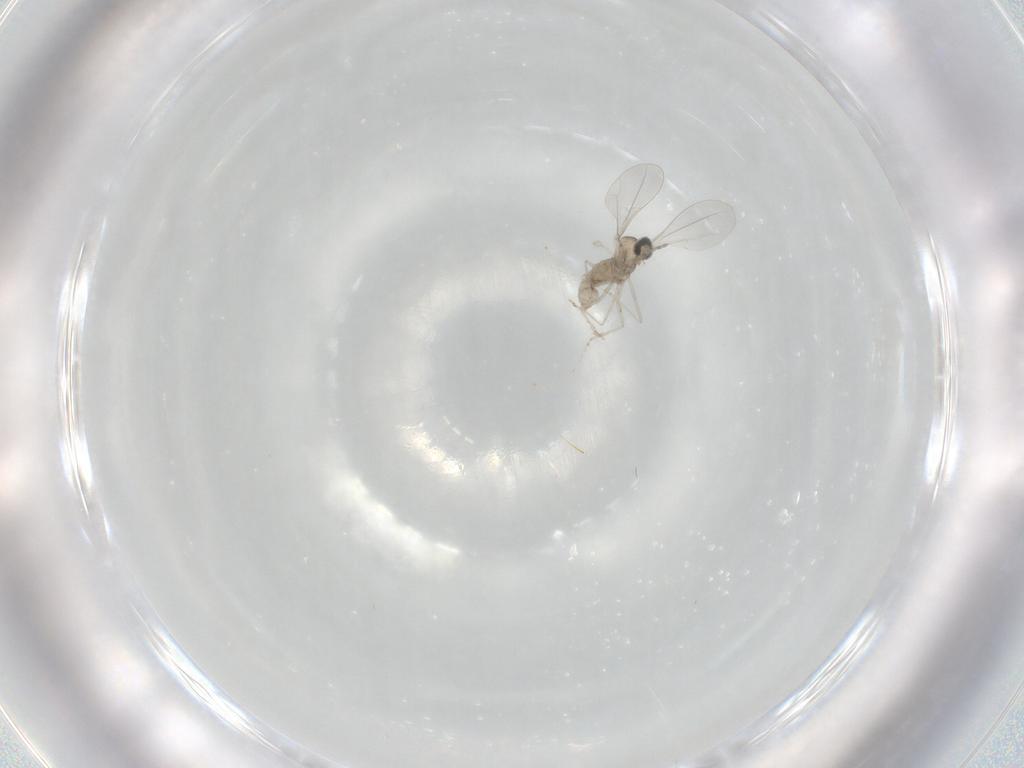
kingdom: Animalia
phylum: Arthropoda
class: Insecta
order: Diptera
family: Cecidomyiidae
